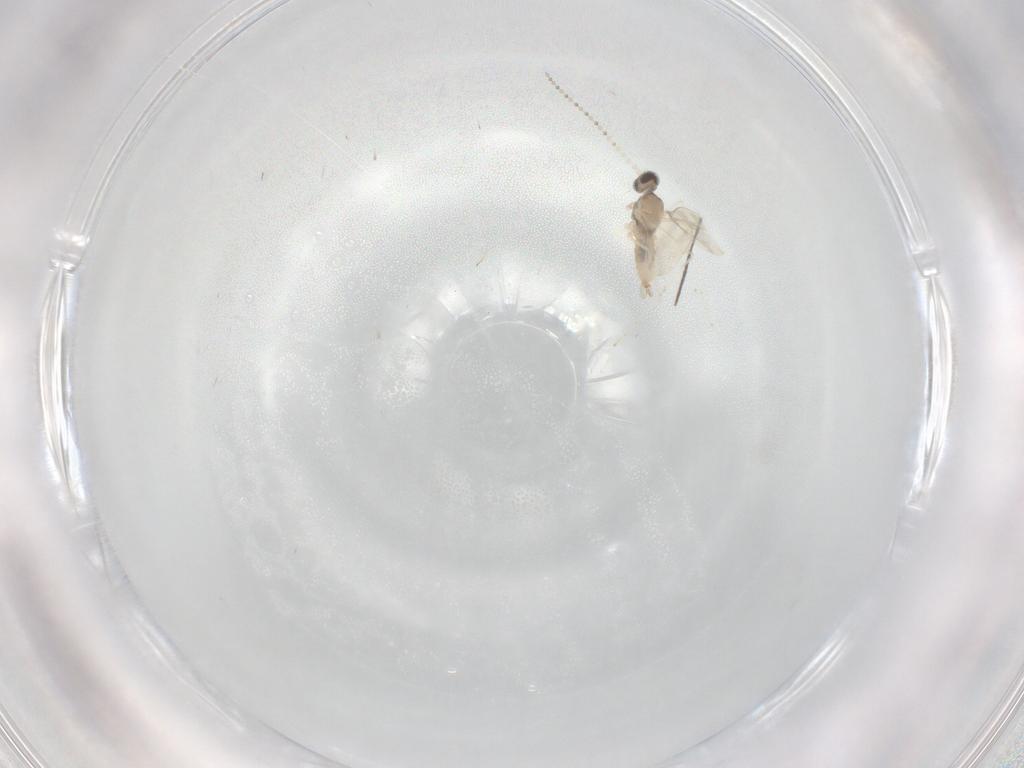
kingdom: Animalia
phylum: Arthropoda
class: Insecta
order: Diptera
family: Cecidomyiidae
